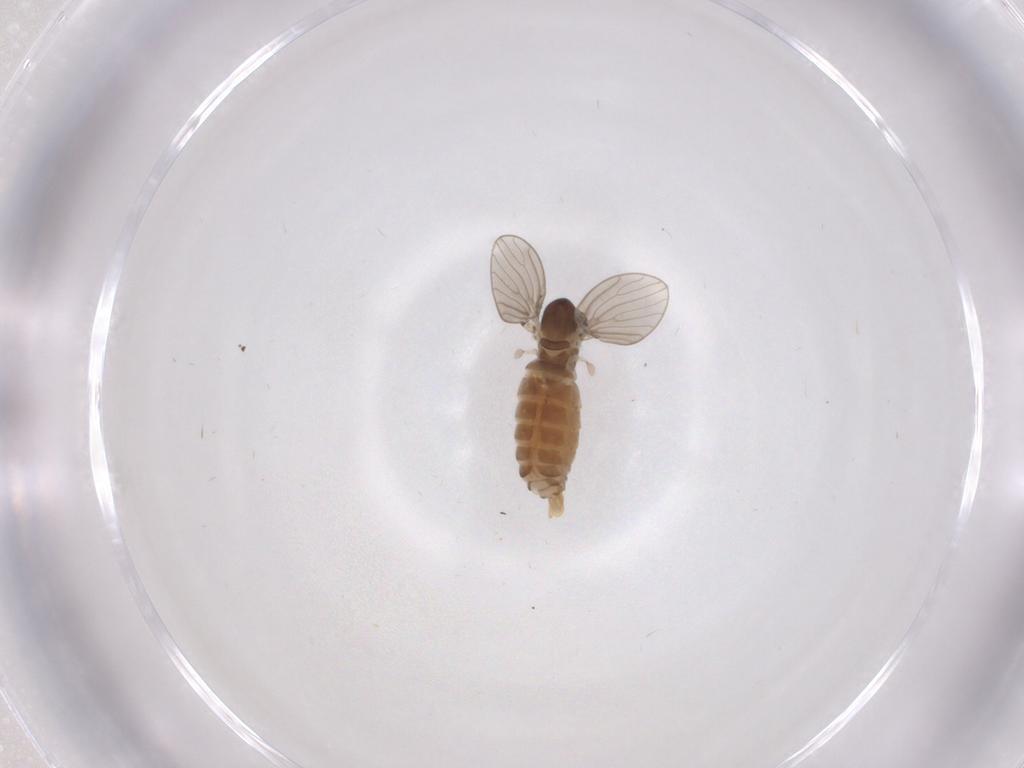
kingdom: Animalia
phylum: Arthropoda
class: Insecta
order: Diptera
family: Psychodidae
